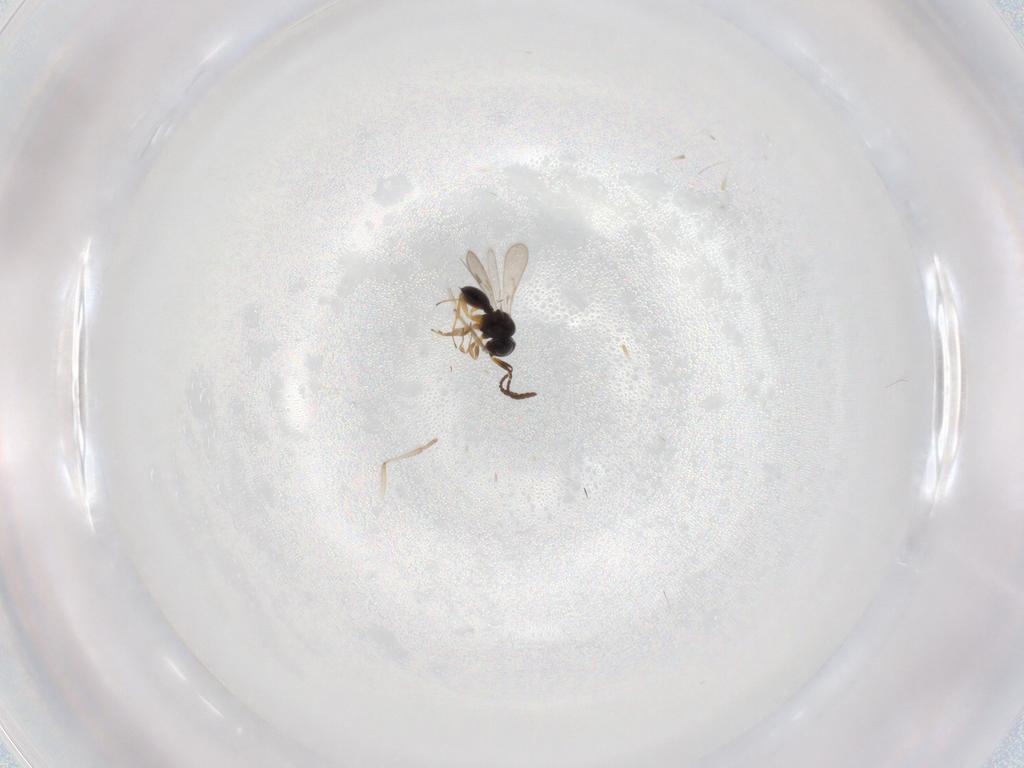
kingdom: Animalia
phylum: Arthropoda
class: Insecta
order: Hymenoptera
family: Scelionidae
